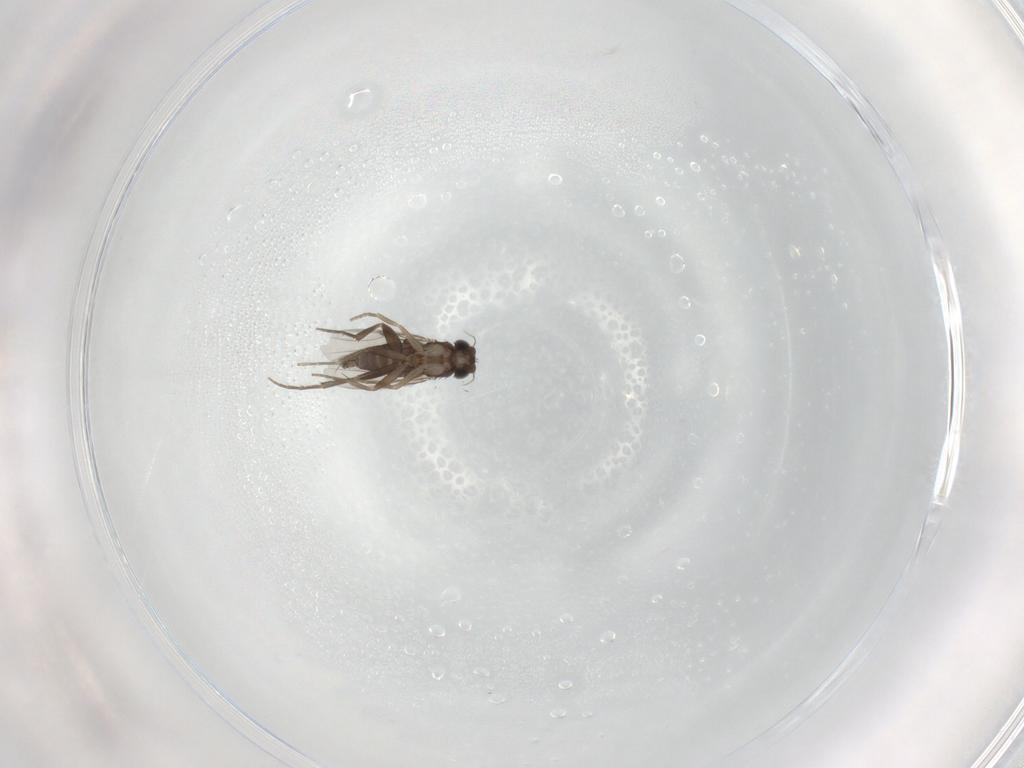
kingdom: Animalia
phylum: Arthropoda
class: Insecta
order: Diptera
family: Phoridae
